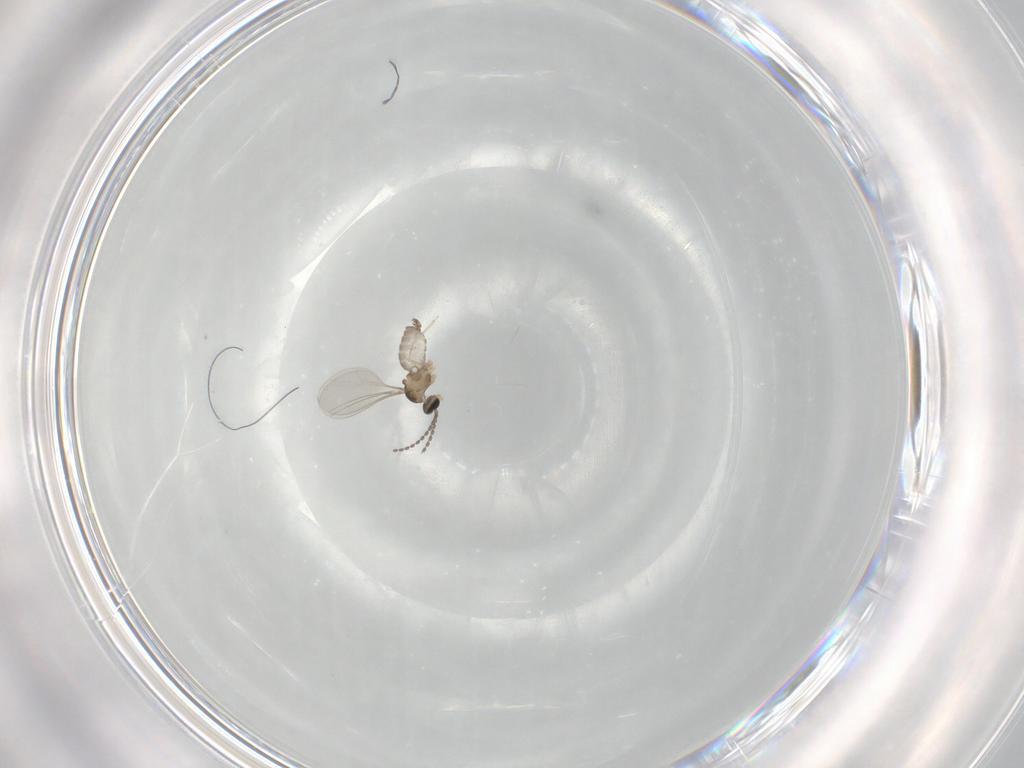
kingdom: Animalia
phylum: Arthropoda
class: Insecta
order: Diptera
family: Cecidomyiidae
